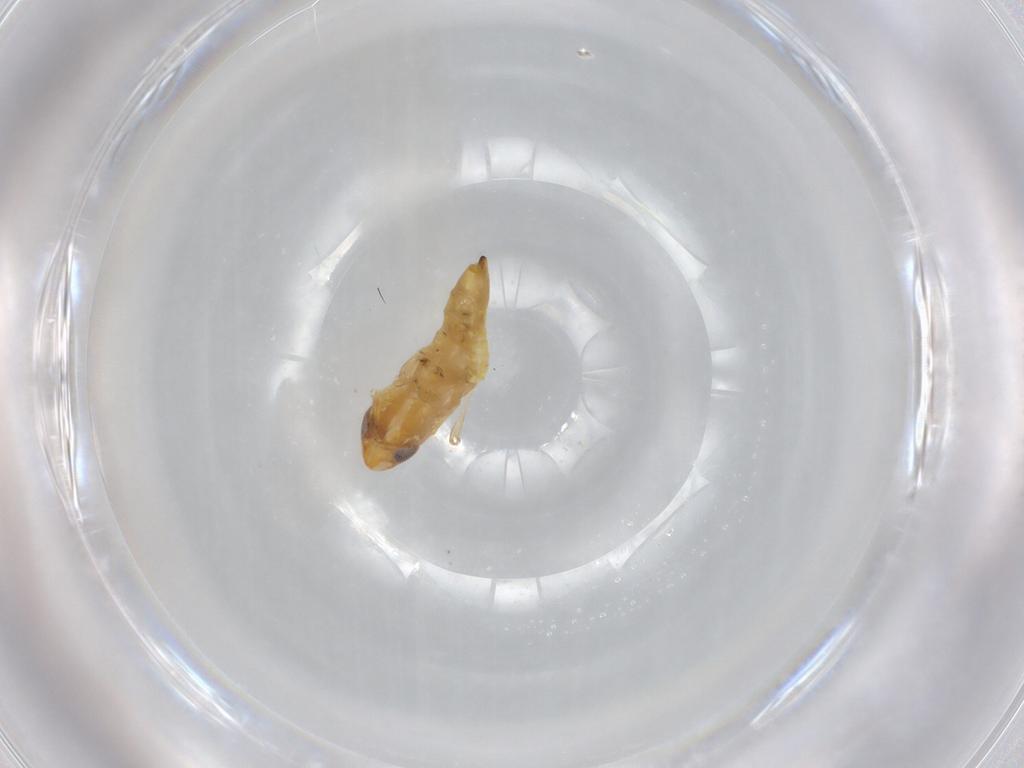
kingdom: Animalia
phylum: Arthropoda
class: Insecta
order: Hemiptera
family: Cicadellidae
